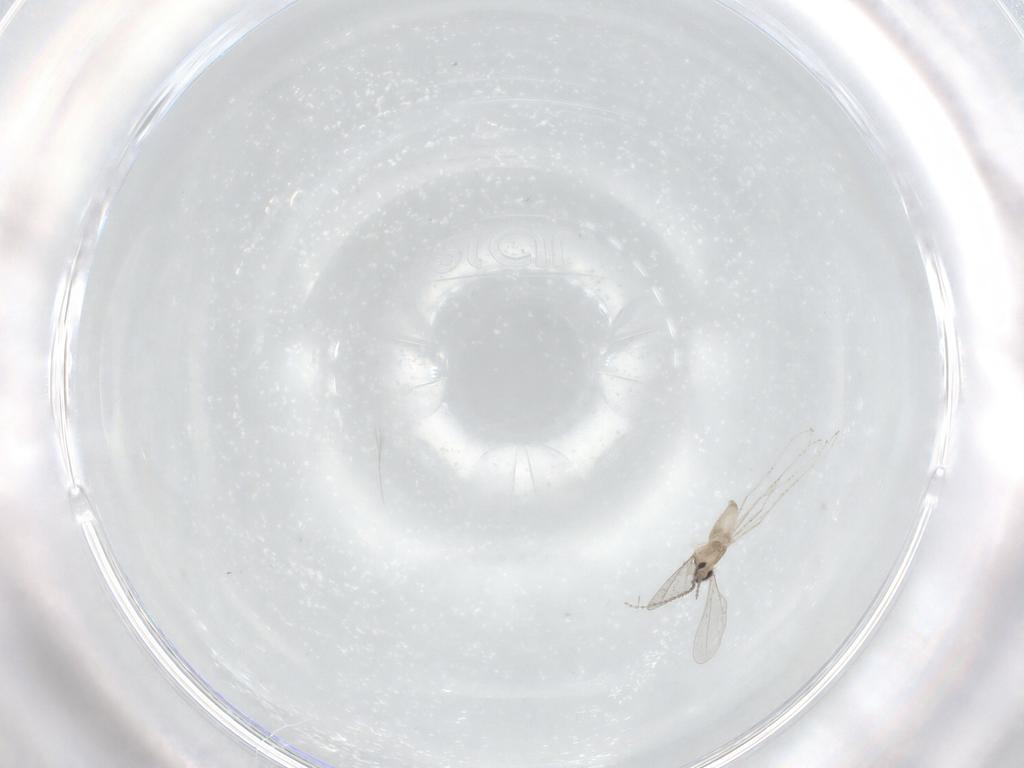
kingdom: Animalia
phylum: Arthropoda
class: Insecta
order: Diptera
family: Cecidomyiidae
